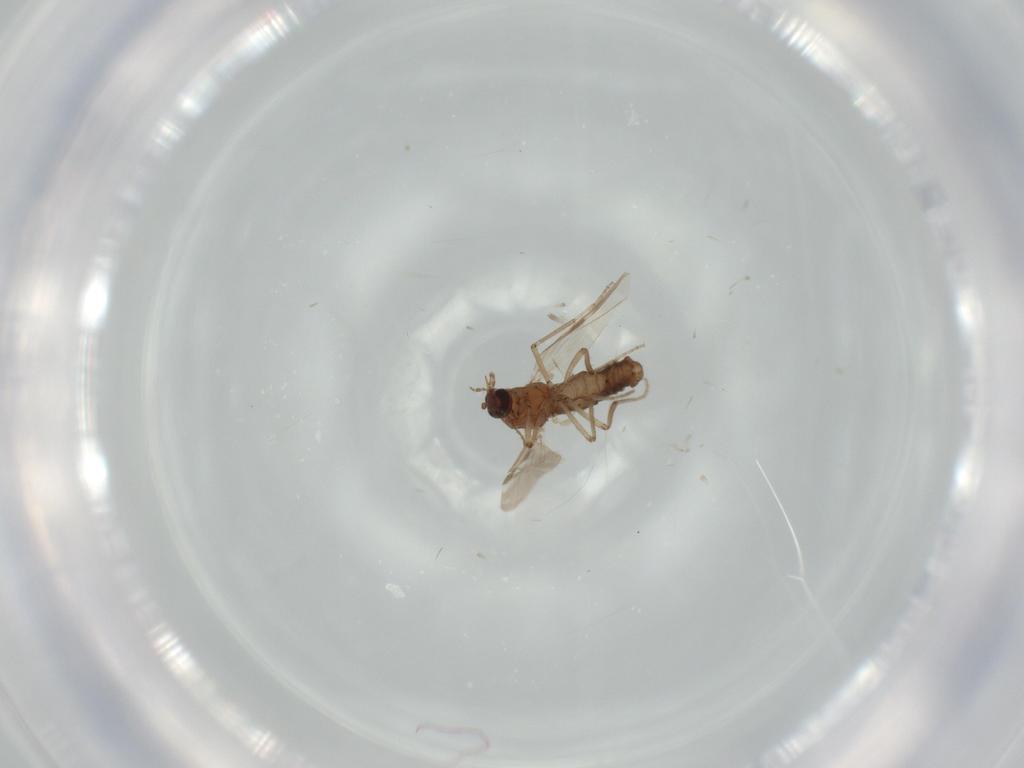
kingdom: Animalia
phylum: Arthropoda
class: Insecta
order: Diptera
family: Ceratopogonidae
